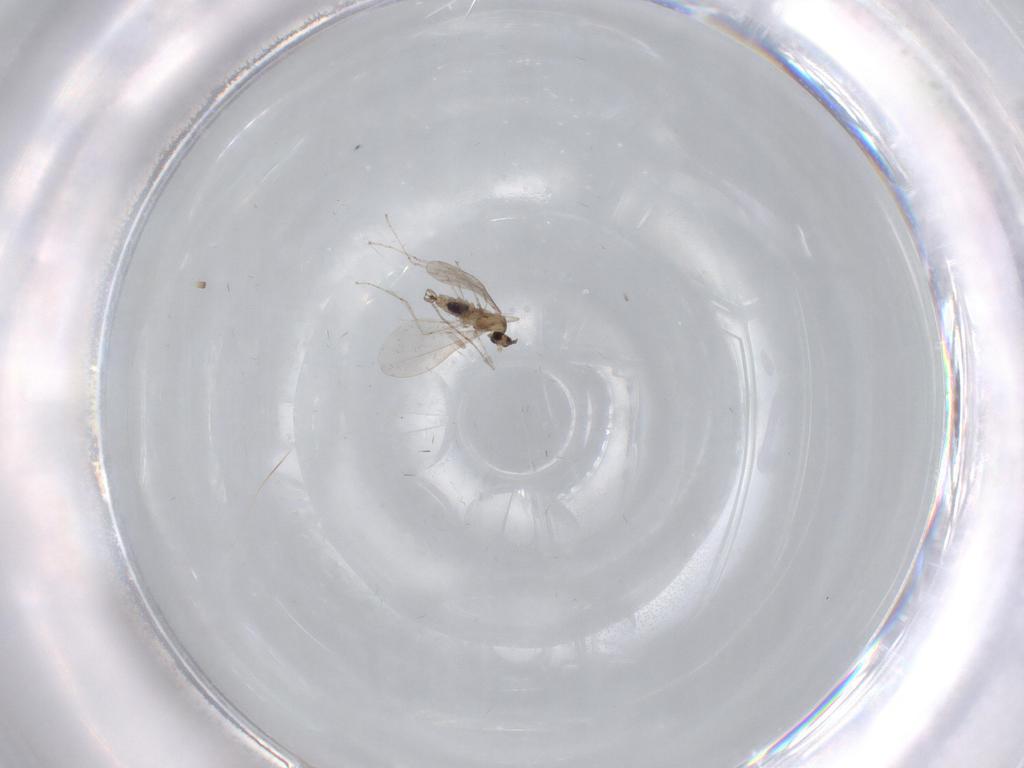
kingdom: Animalia
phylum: Arthropoda
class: Insecta
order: Diptera
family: Cecidomyiidae
